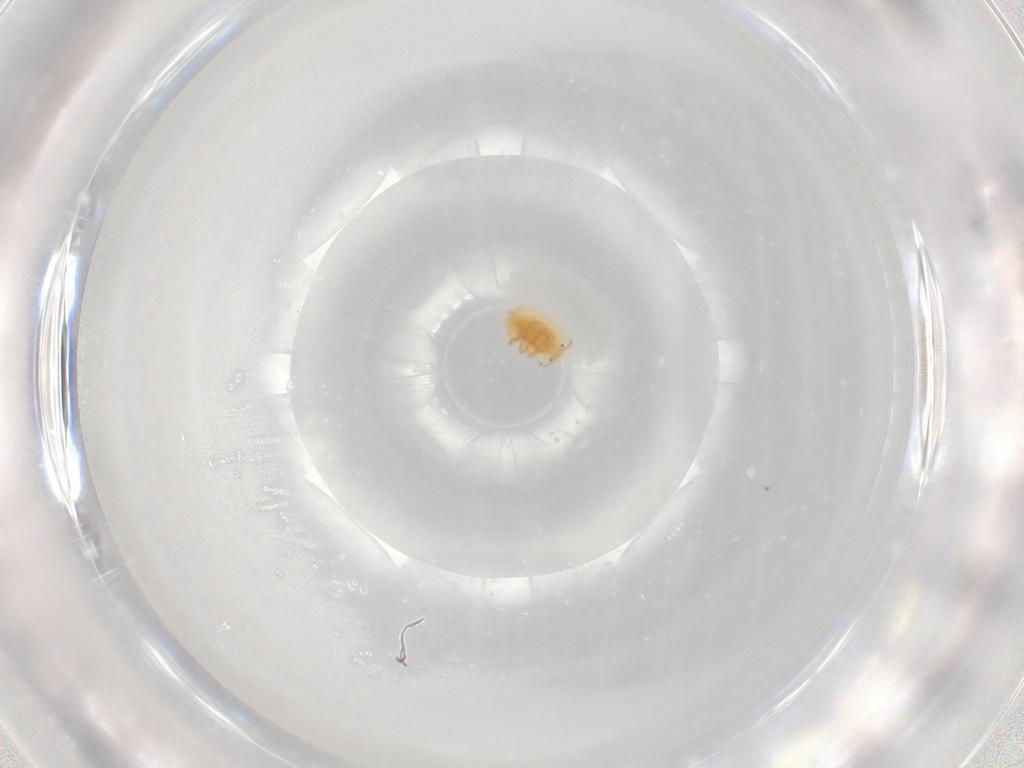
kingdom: Animalia
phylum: Arthropoda
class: Insecta
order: Hemiptera
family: Pseudococcidae
